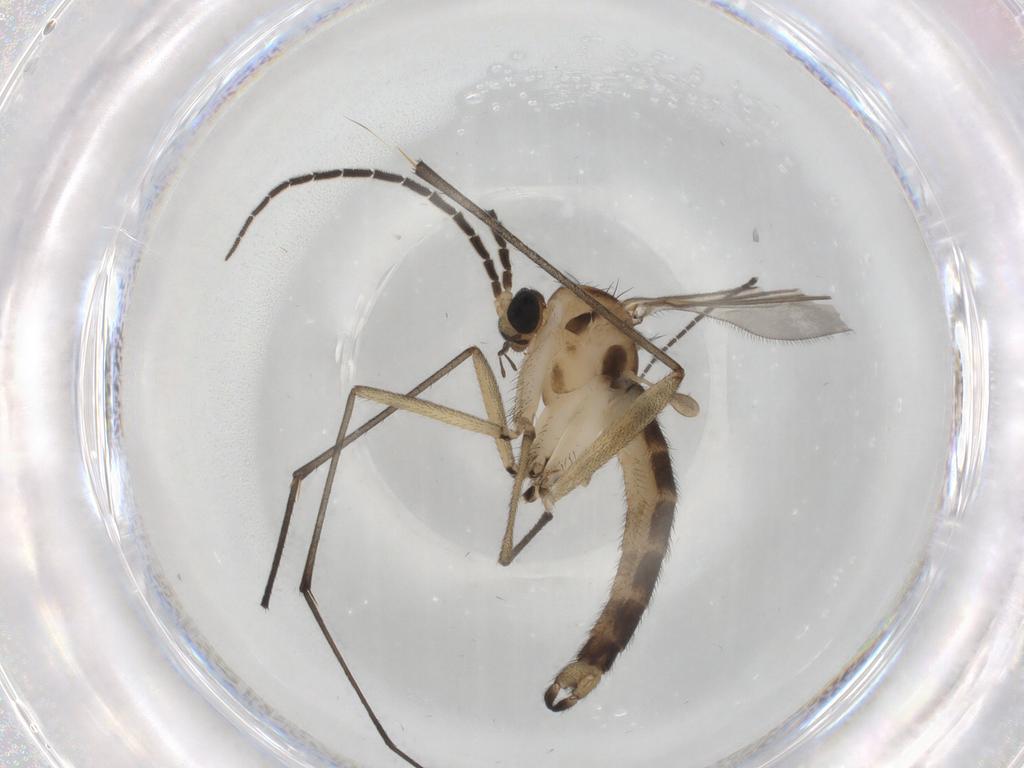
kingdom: Animalia
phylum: Arthropoda
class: Insecta
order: Diptera
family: Sciaridae
